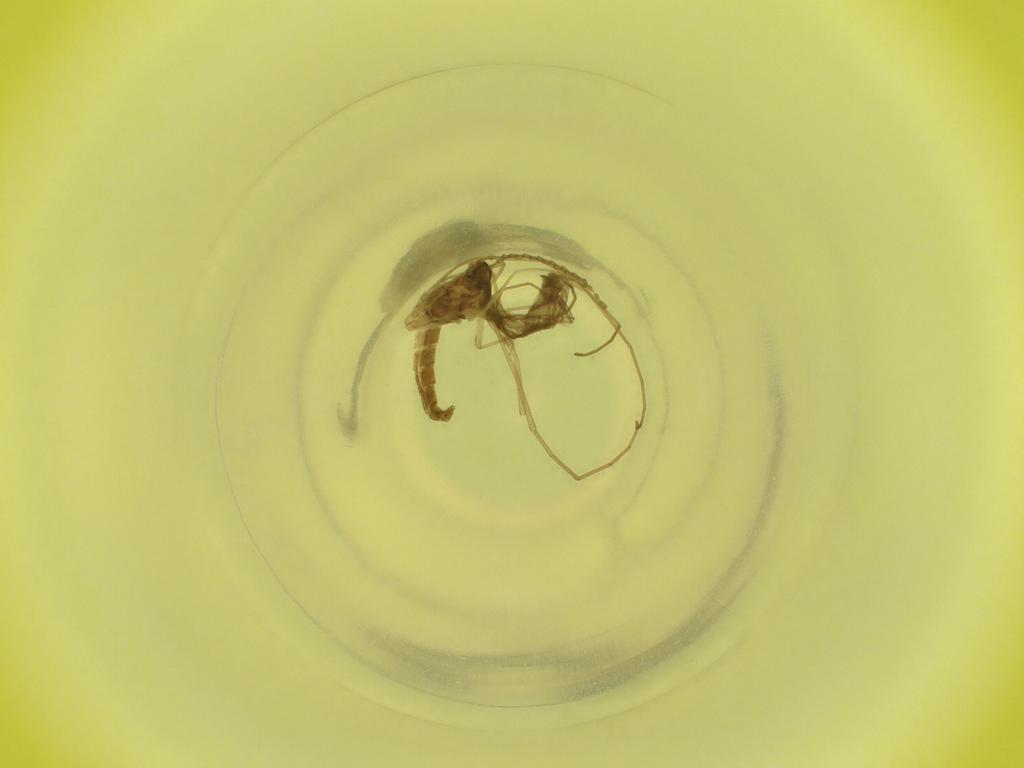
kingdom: Animalia
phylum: Arthropoda
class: Insecta
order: Diptera
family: Cecidomyiidae
